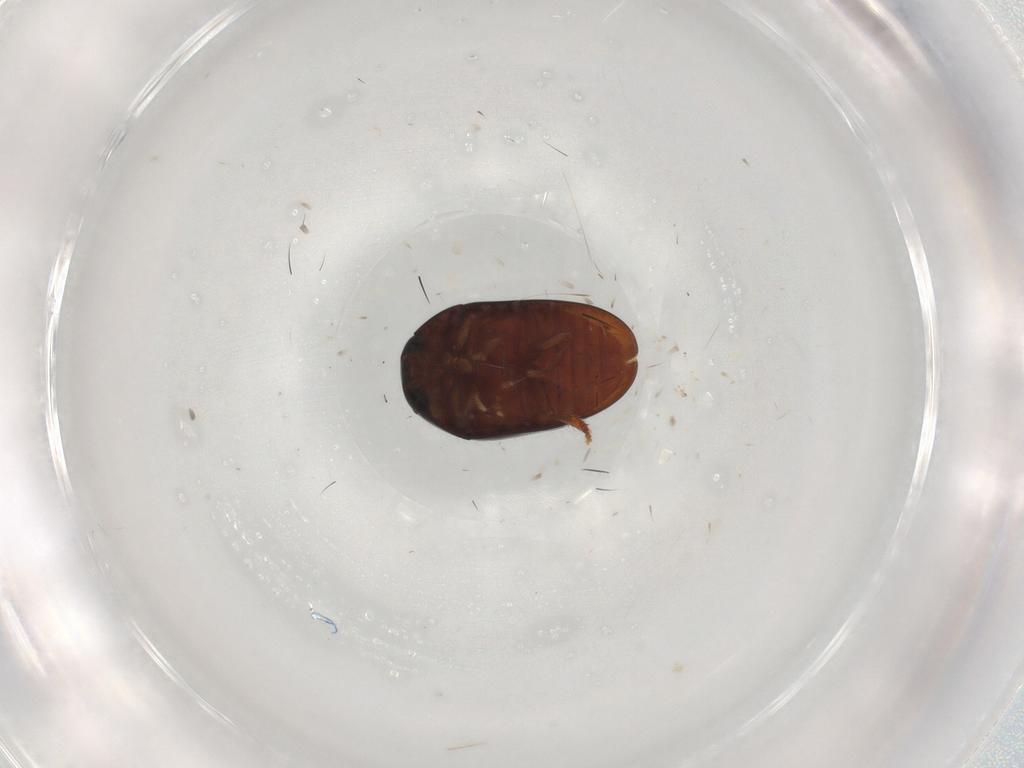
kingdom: Animalia
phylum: Arthropoda
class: Insecta
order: Coleoptera
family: Phalacridae
